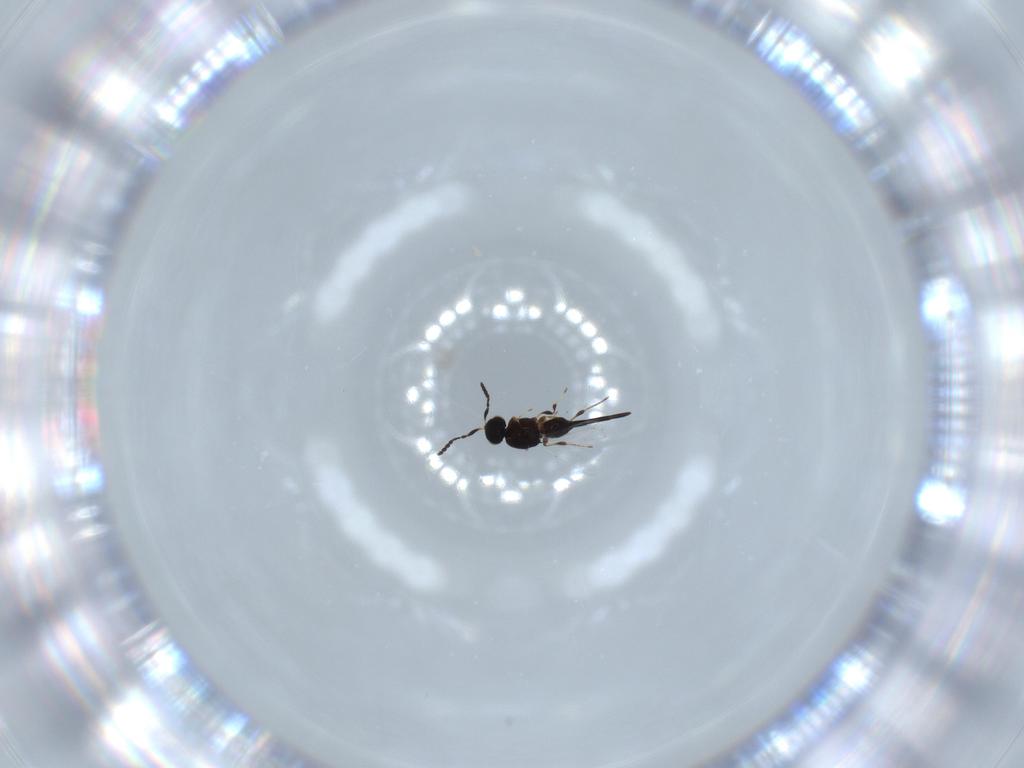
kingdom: Animalia
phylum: Arthropoda
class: Insecta
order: Hymenoptera
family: Platygastridae
